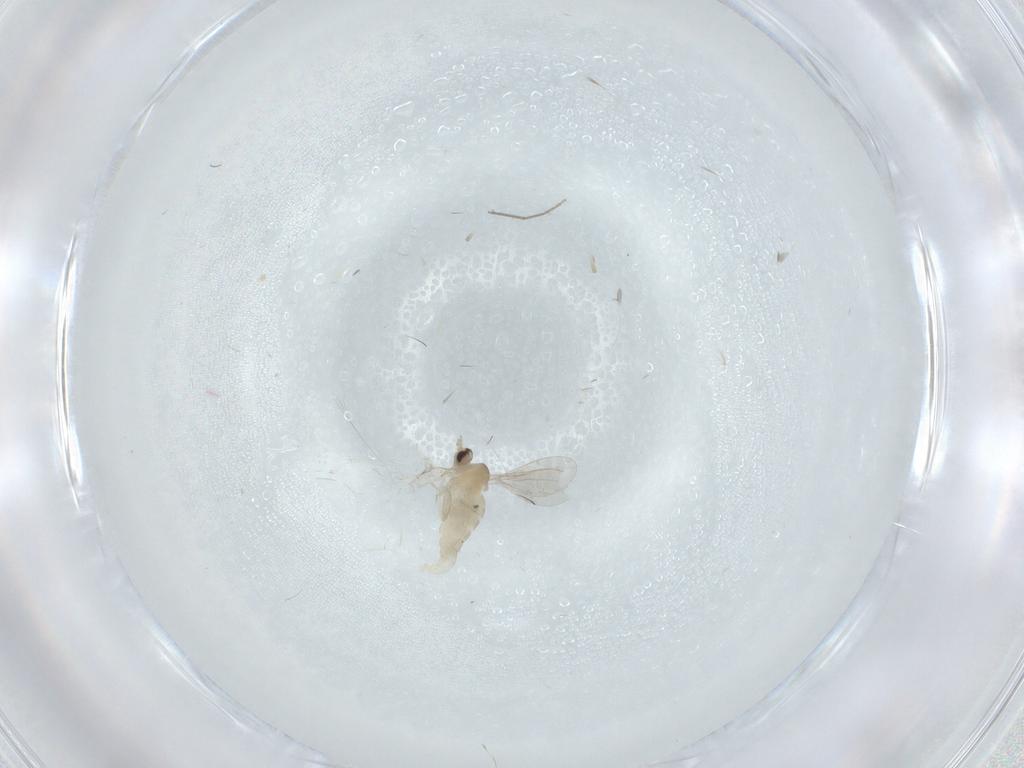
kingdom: Animalia
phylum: Arthropoda
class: Insecta
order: Diptera
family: Cecidomyiidae
